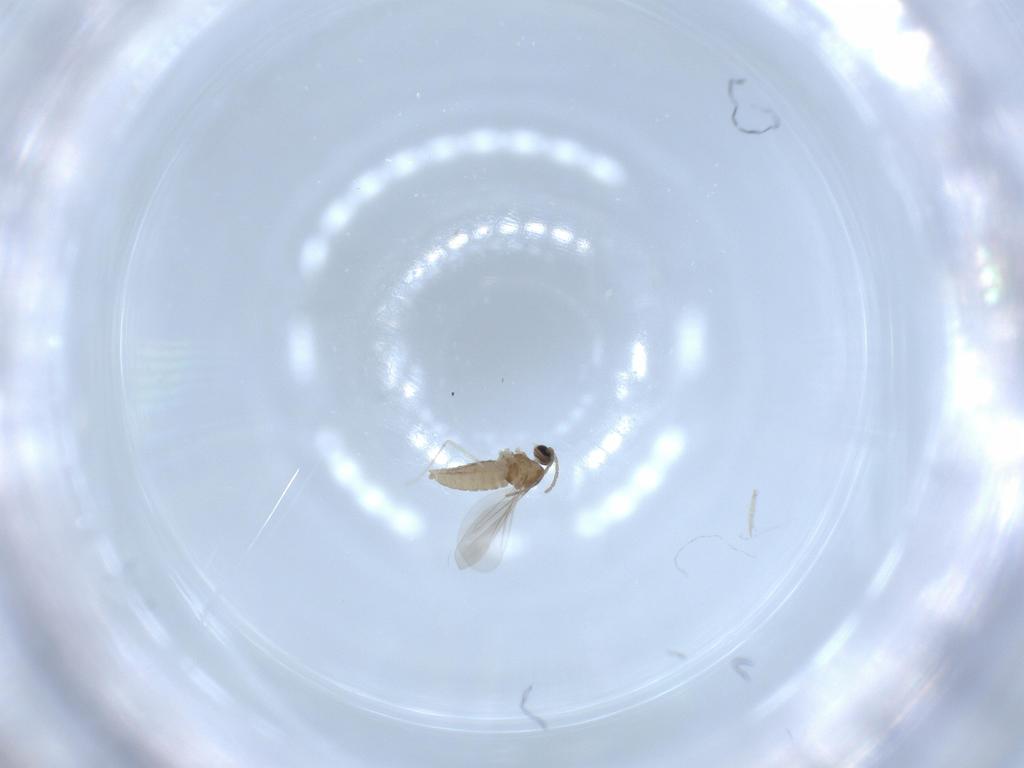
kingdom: Animalia
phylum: Arthropoda
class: Insecta
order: Diptera
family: Cecidomyiidae
